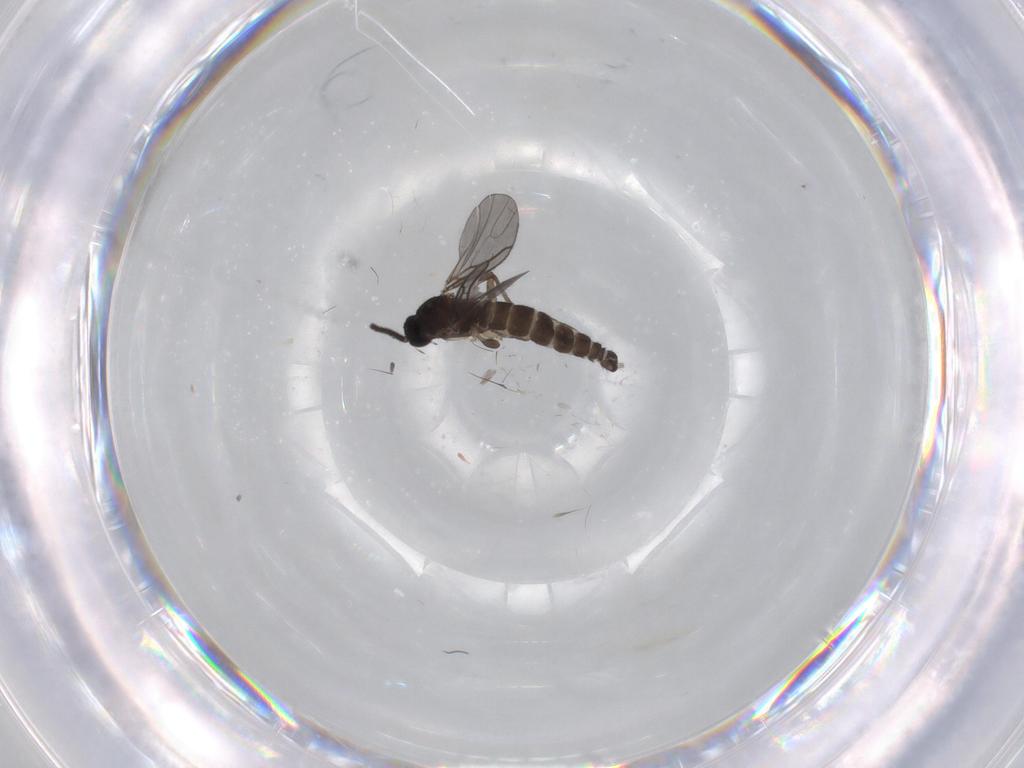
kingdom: Animalia
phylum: Arthropoda
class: Insecta
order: Diptera
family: Sciaridae
